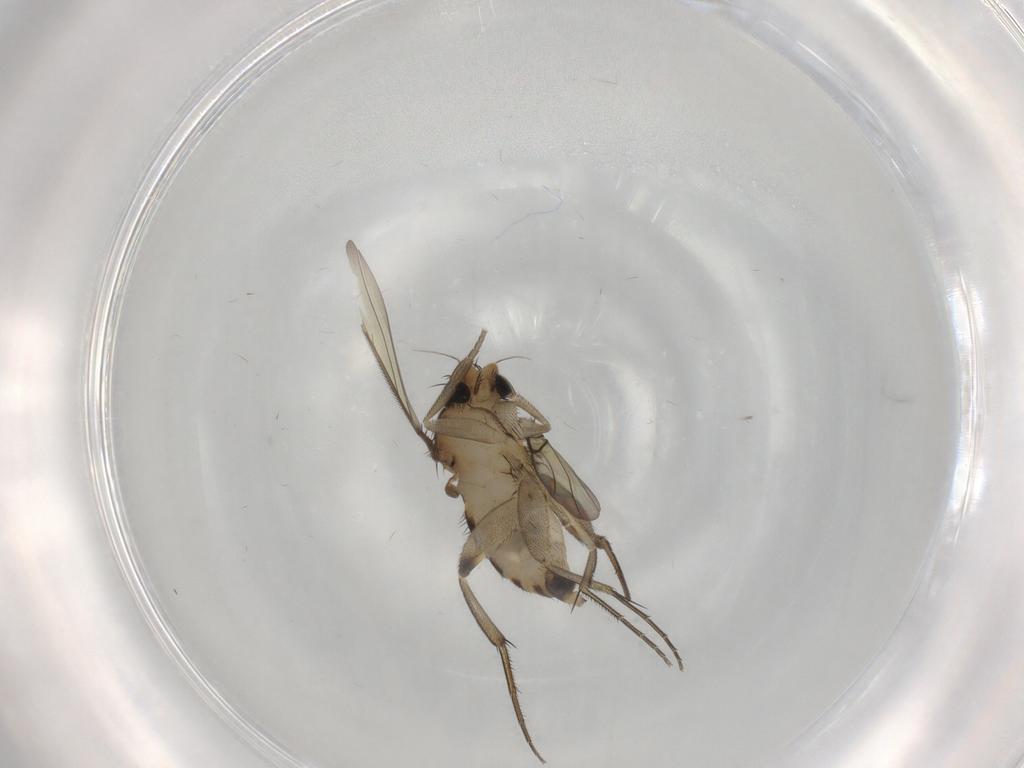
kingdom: Animalia
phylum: Arthropoda
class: Insecta
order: Diptera
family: Phoridae
